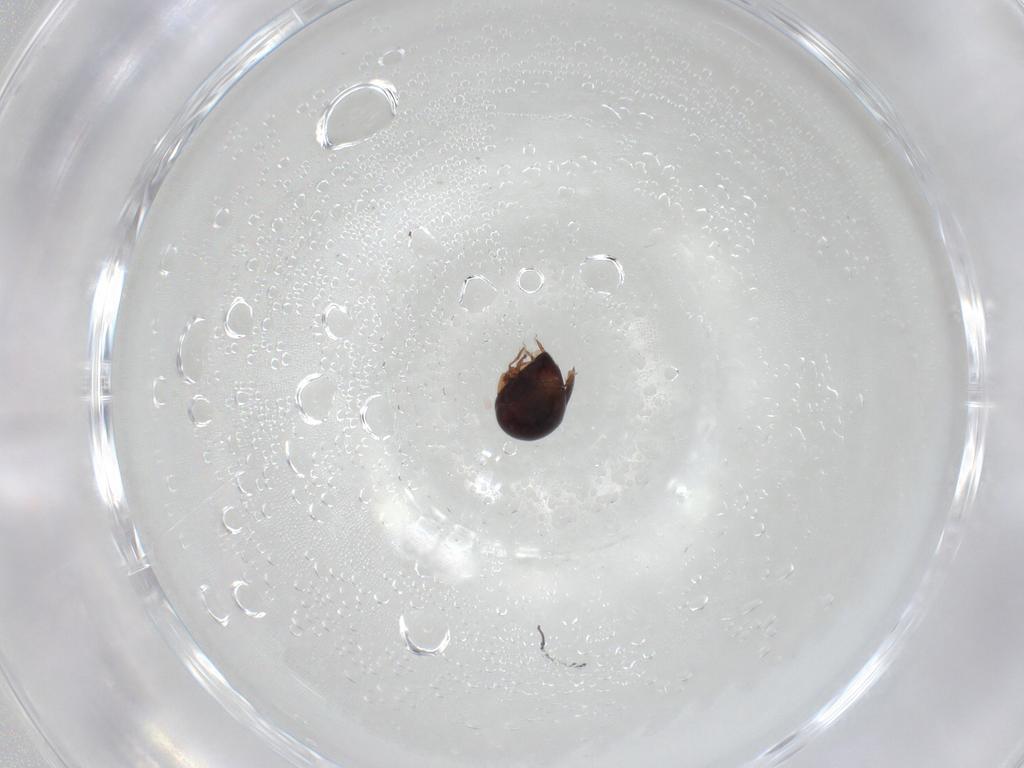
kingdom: Animalia
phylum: Arthropoda
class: Arachnida
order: Sarcoptiformes
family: Galumnidae
